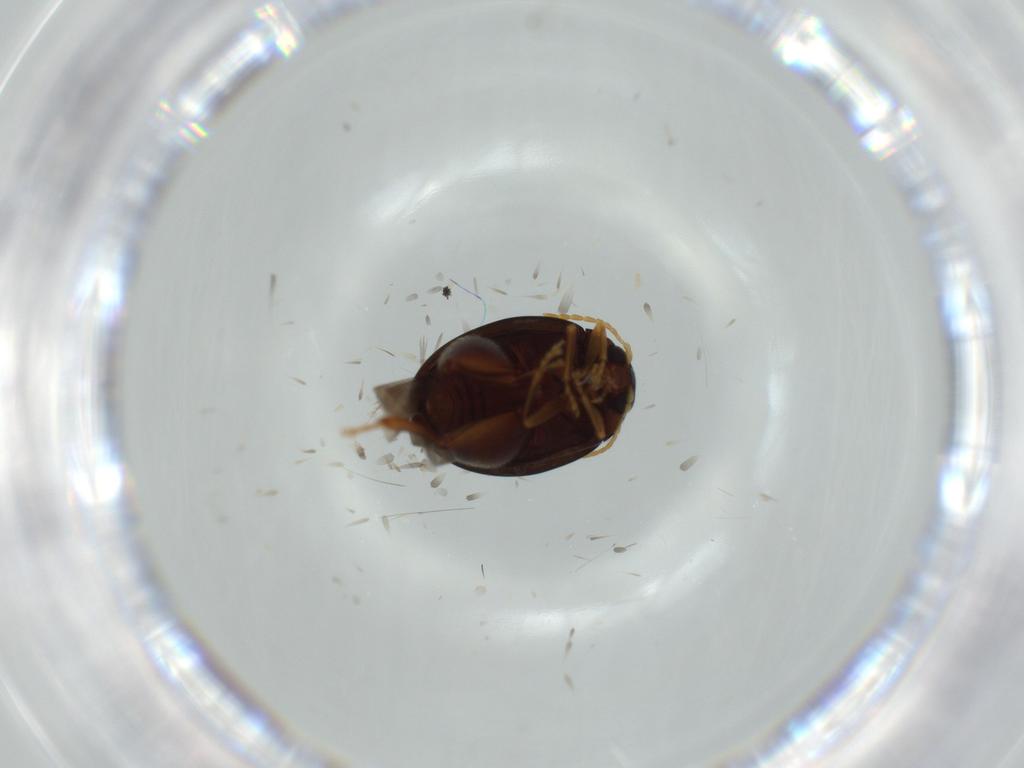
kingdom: Animalia
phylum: Arthropoda
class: Insecta
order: Coleoptera
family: Chrysomelidae
